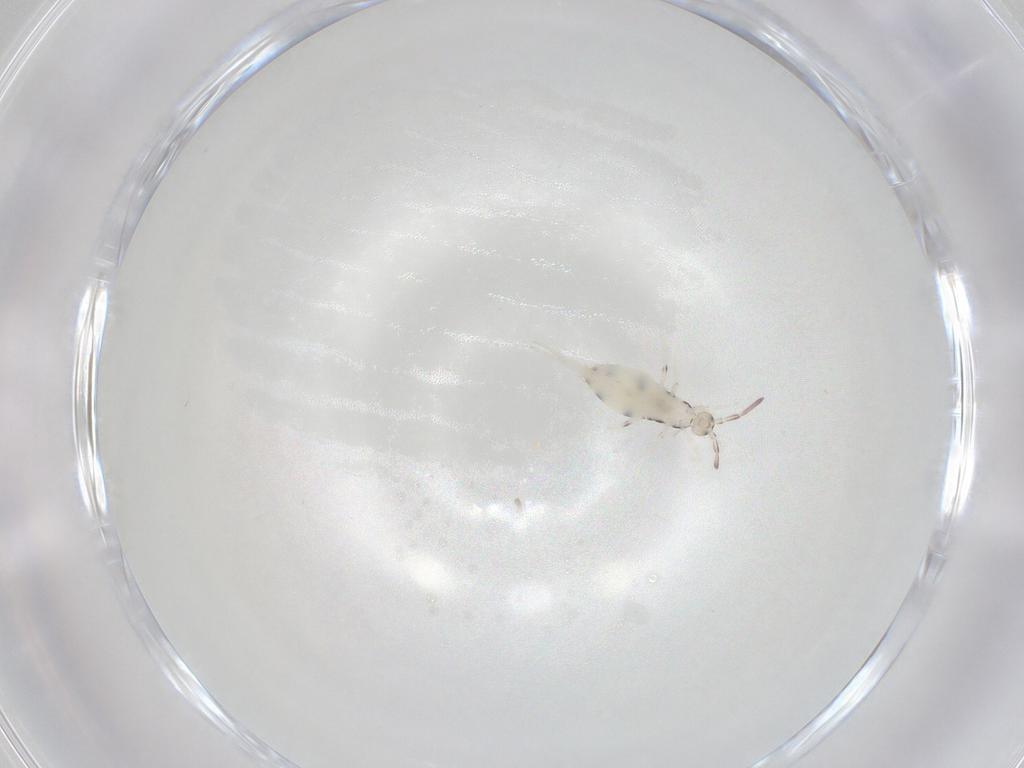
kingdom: Animalia
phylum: Arthropoda
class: Collembola
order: Entomobryomorpha
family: Entomobryidae
